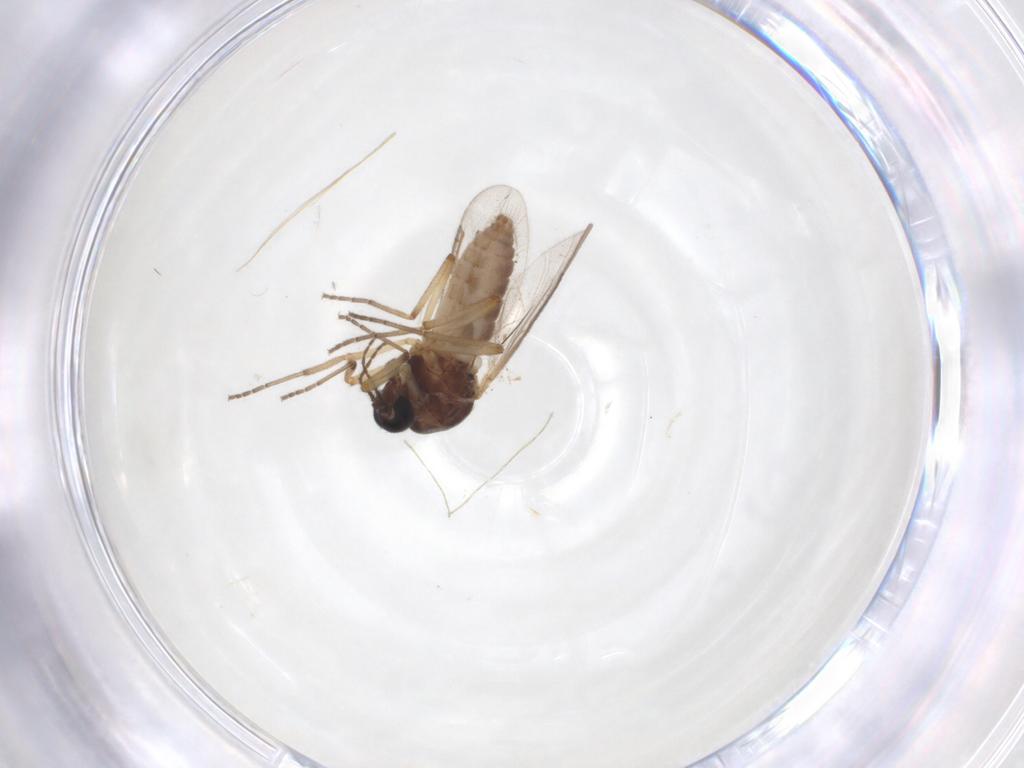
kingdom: Animalia
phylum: Arthropoda
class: Insecta
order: Diptera
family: Ceratopogonidae
